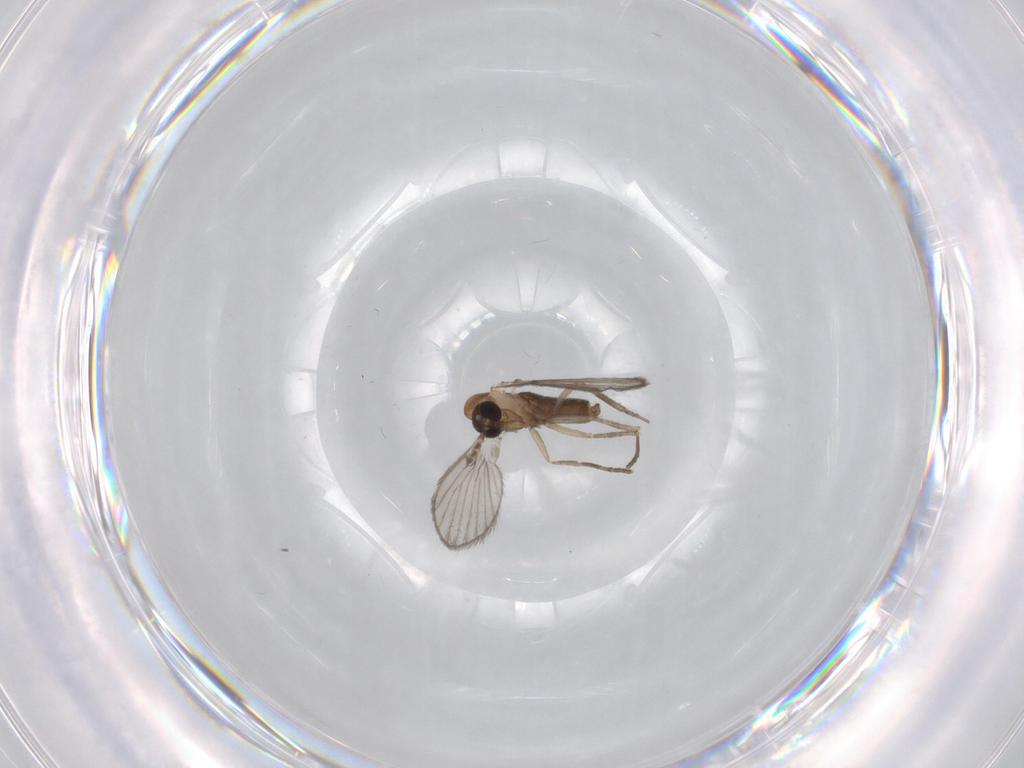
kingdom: Animalia
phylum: Arthropoda
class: Insecta
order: Diptera
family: Psychodidae
